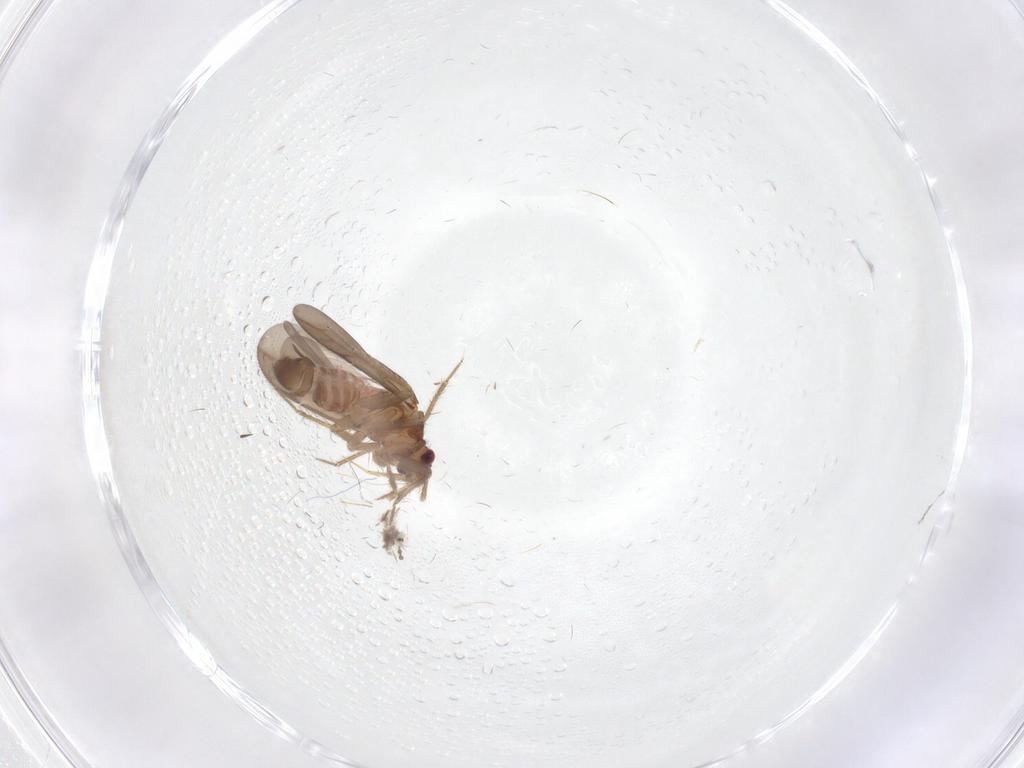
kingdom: Animalia
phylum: Arthropoda
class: Insecta
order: Hemiptera
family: Ceratocombidae
